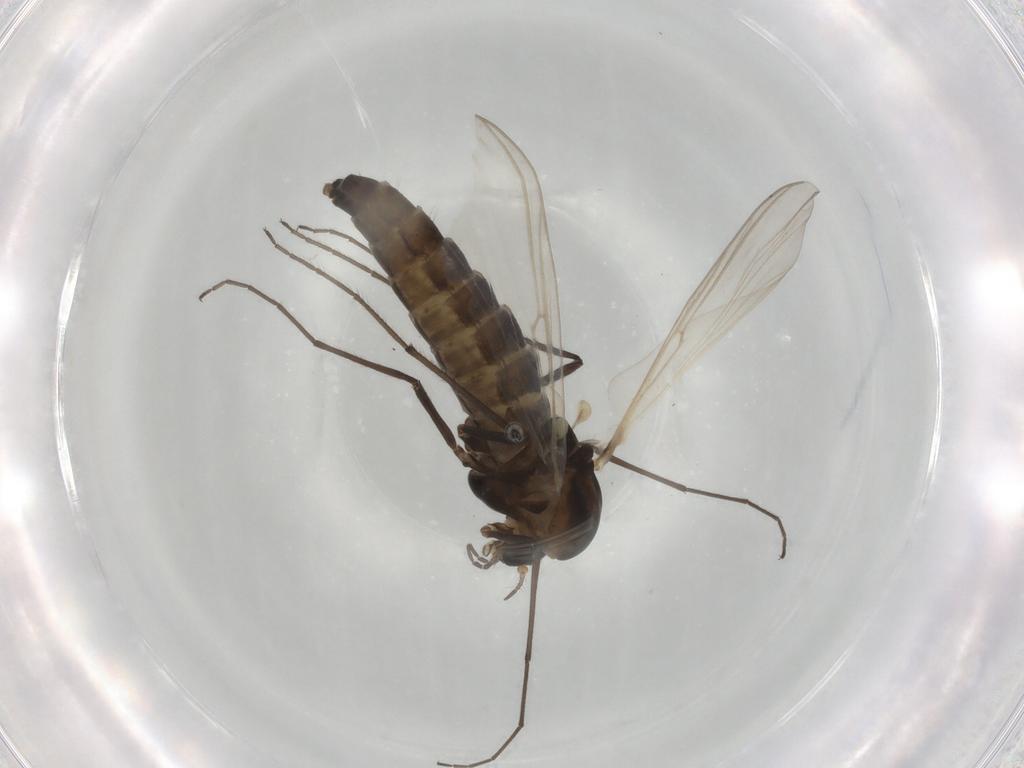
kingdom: Animalia
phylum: Arthropoda
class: Insecta
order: Diptera
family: Chironomidae
